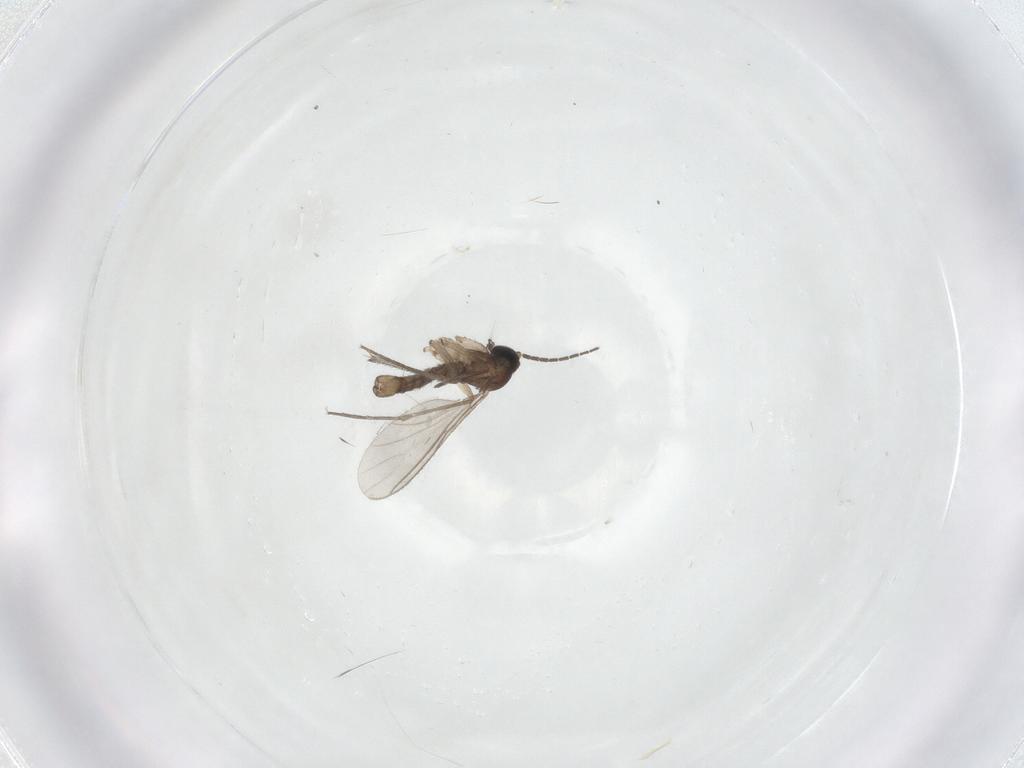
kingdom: Animalia
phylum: Arthropoda
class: Insecta
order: Diptera
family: Sciaridae
